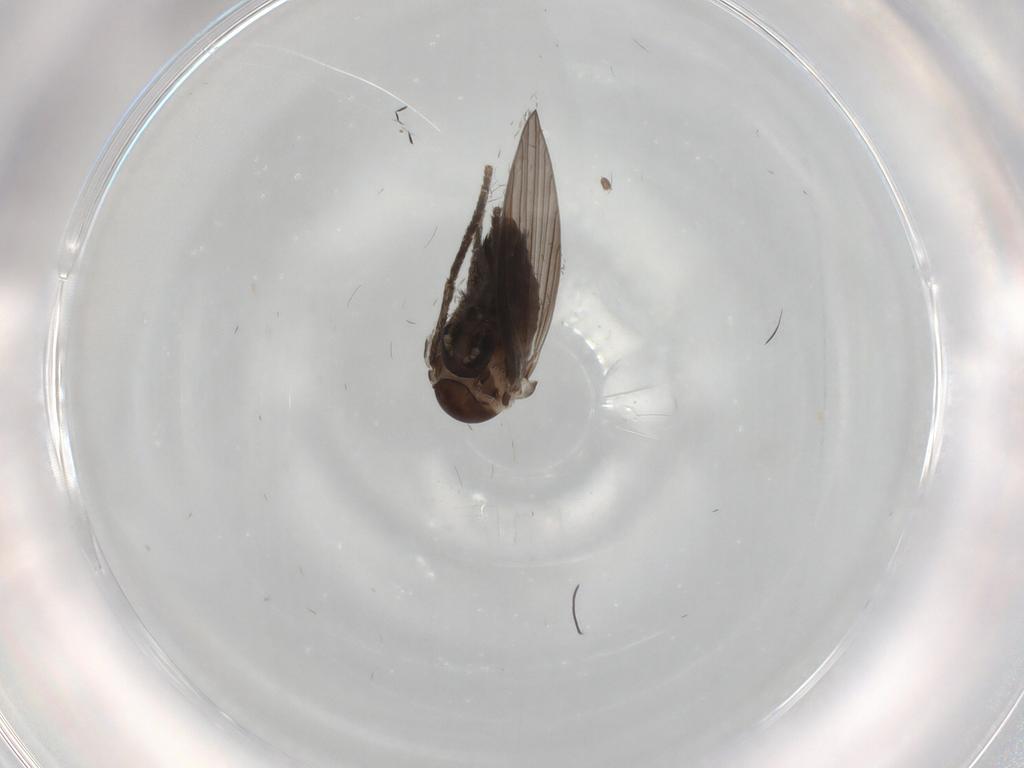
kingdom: Animalia
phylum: Arthropoda
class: Insecta
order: Diptera
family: Psychodidae
